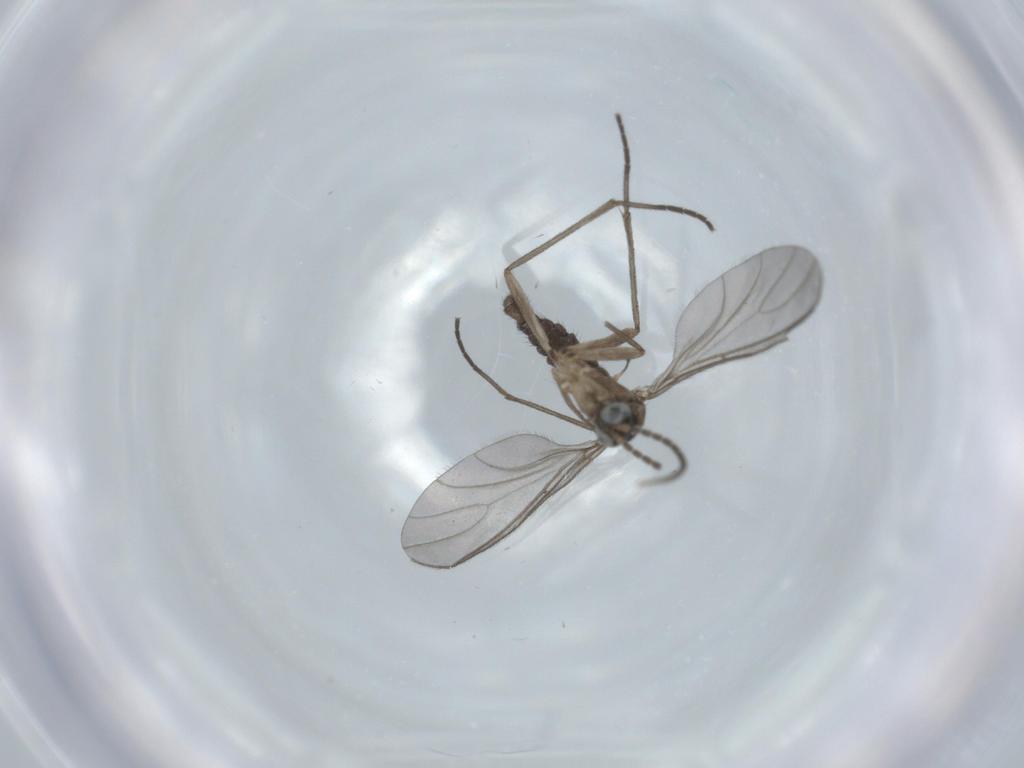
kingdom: Animalia
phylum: Arthropoda
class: Insecta
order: Diptera
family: Sciaridae
